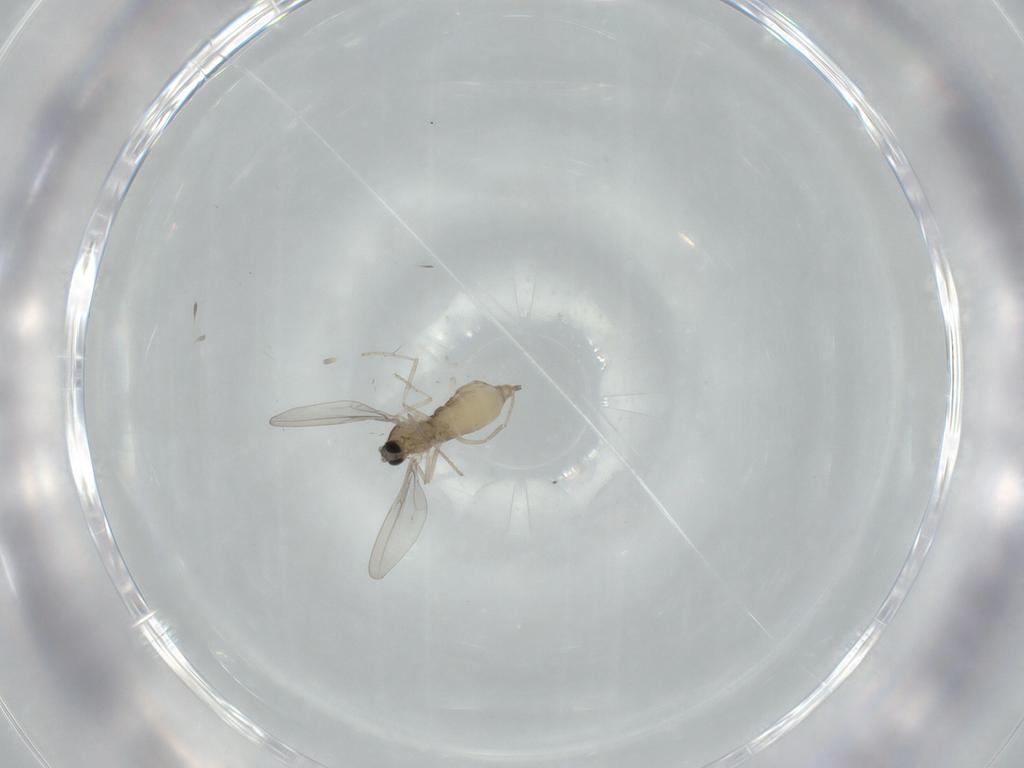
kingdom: Animalia
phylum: Arthropoda
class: Insecta
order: Diptera
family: Cecidomyiidae
